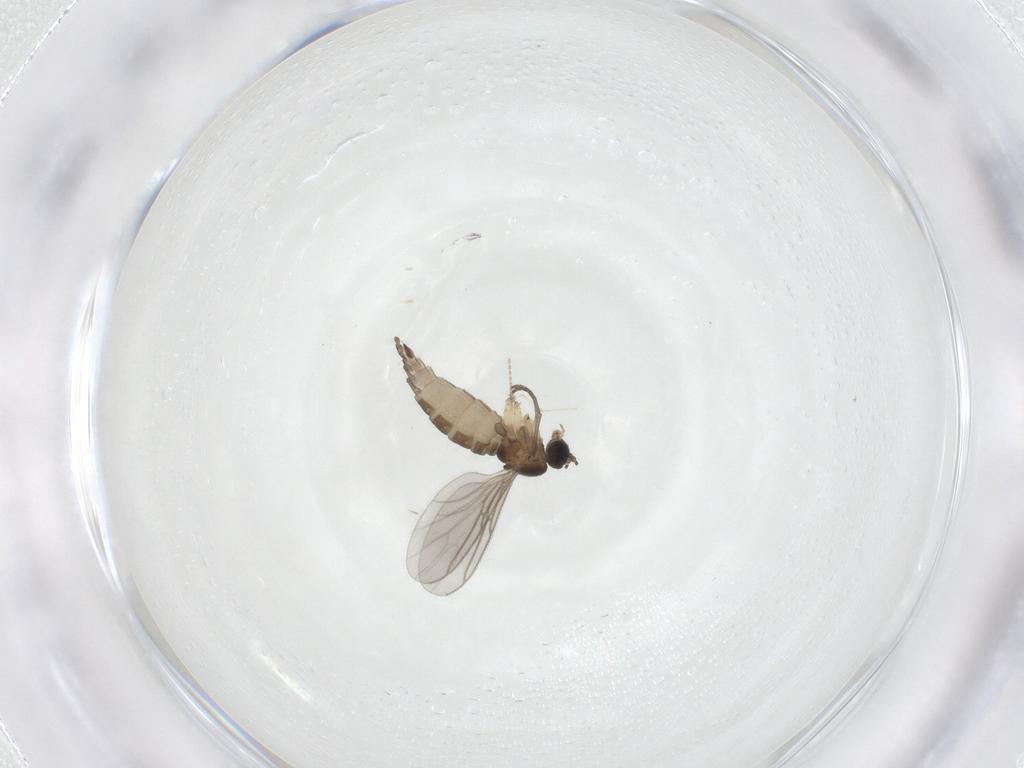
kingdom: Animalia
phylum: Arthropoda
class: Insecta
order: Diptera
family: Sciaridae
